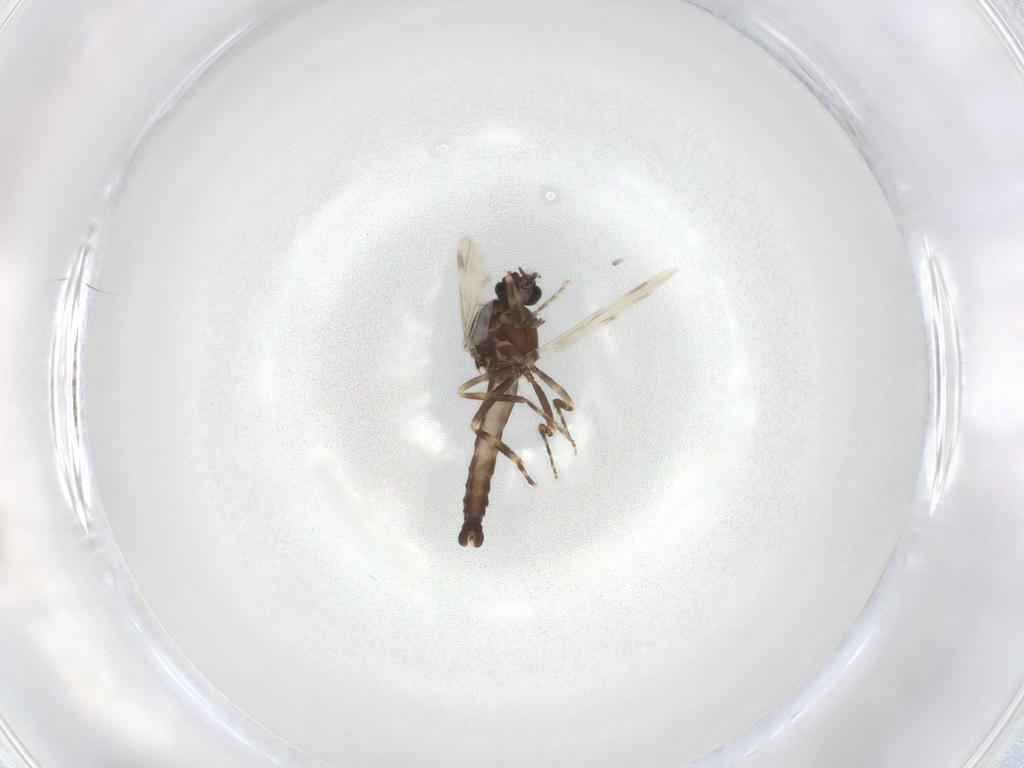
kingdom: Animalia
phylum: Arthropoda
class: Insecta
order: Diptera
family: Ceratopogonidae
